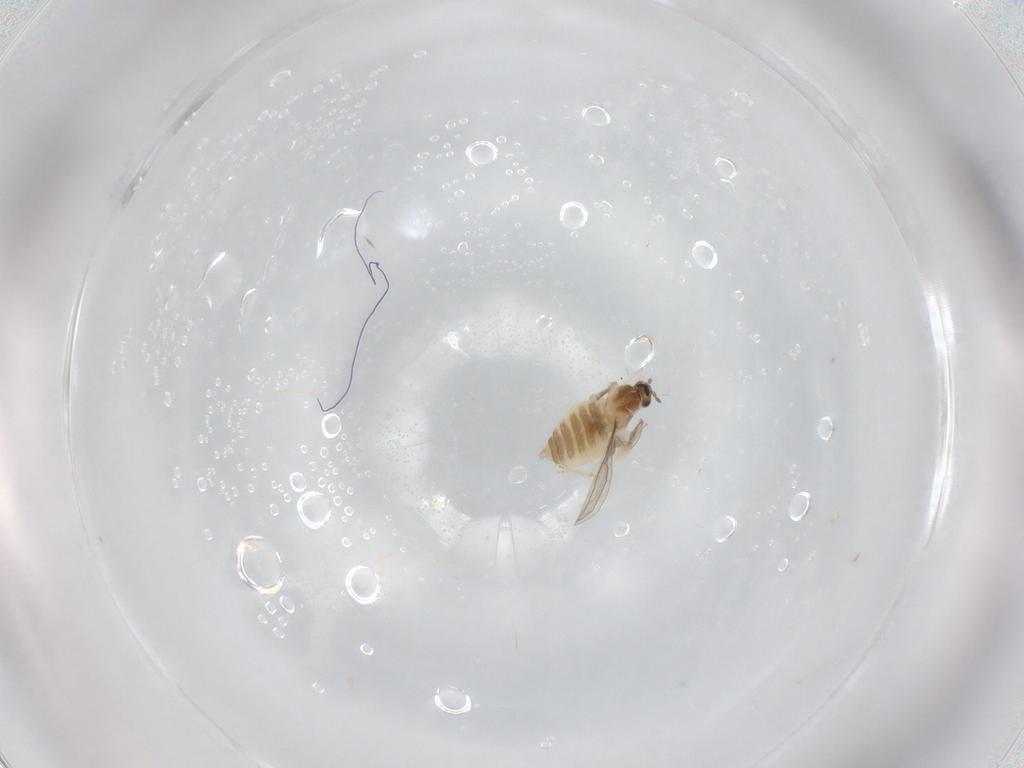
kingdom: Animalia
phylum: Arthropoda
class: Insecta
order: Diptera
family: Cecidomyiidae
